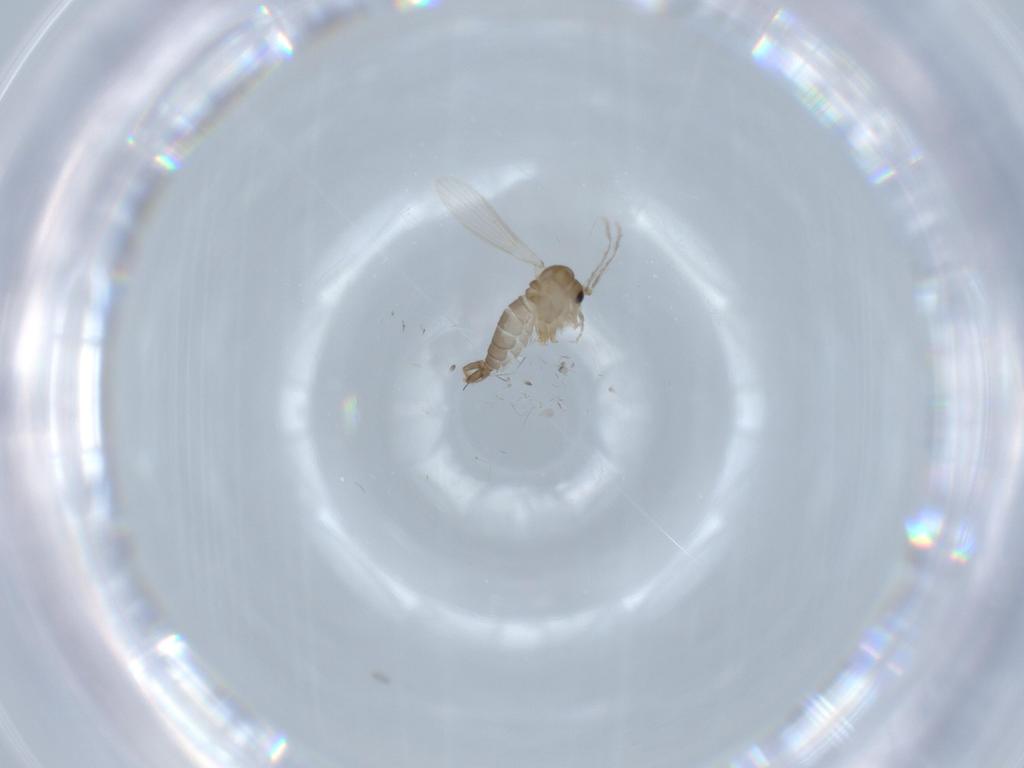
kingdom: Animalia
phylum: Arthropoda
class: Insecta
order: Diptera
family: Psychodidae
